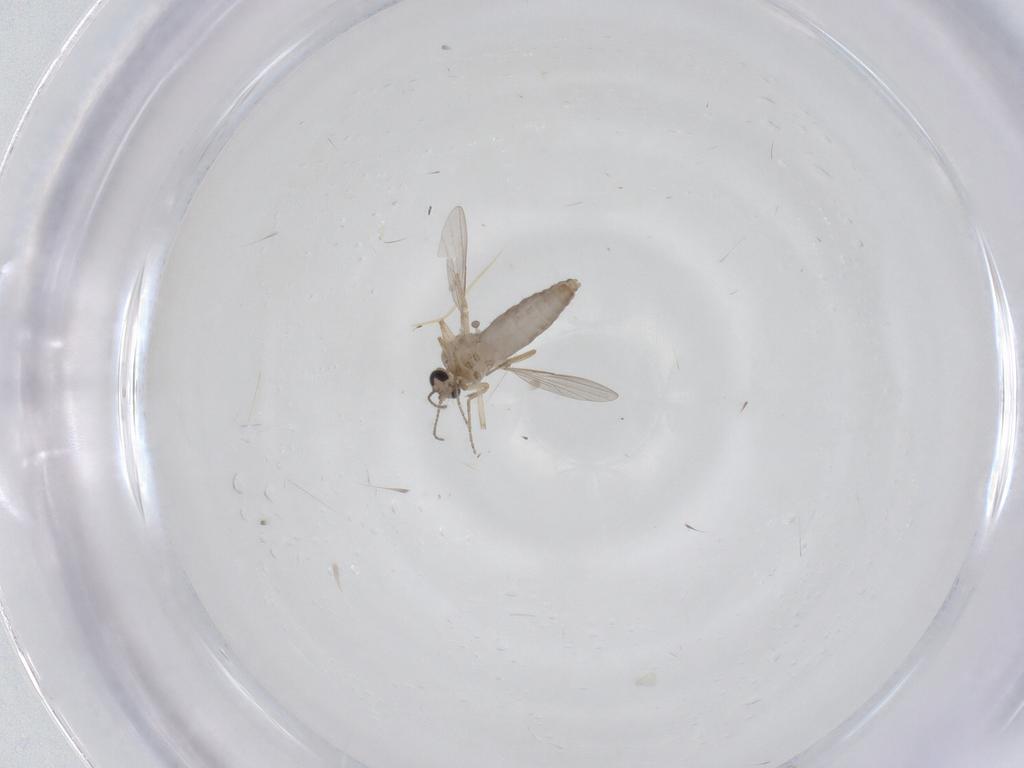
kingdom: Animalia
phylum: Arthropoda
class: Insecta
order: Diptera
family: Ceratopogonidae
